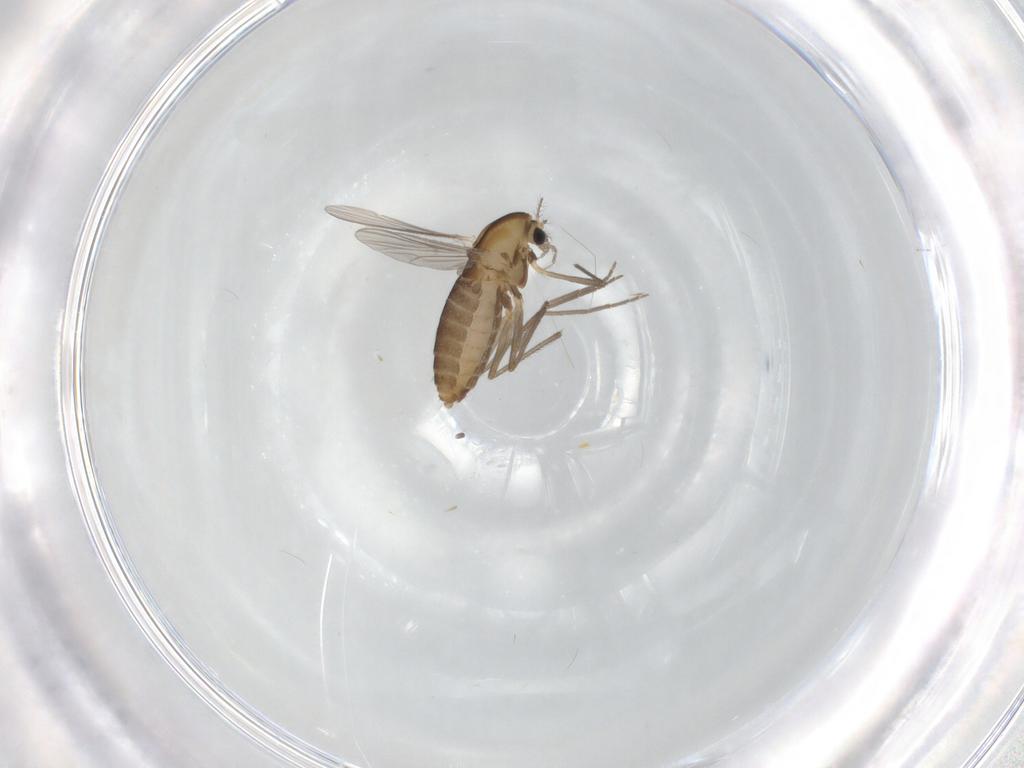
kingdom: Animalia
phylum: Arthropoda
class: Insecta
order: Diptera
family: Chironomidae
